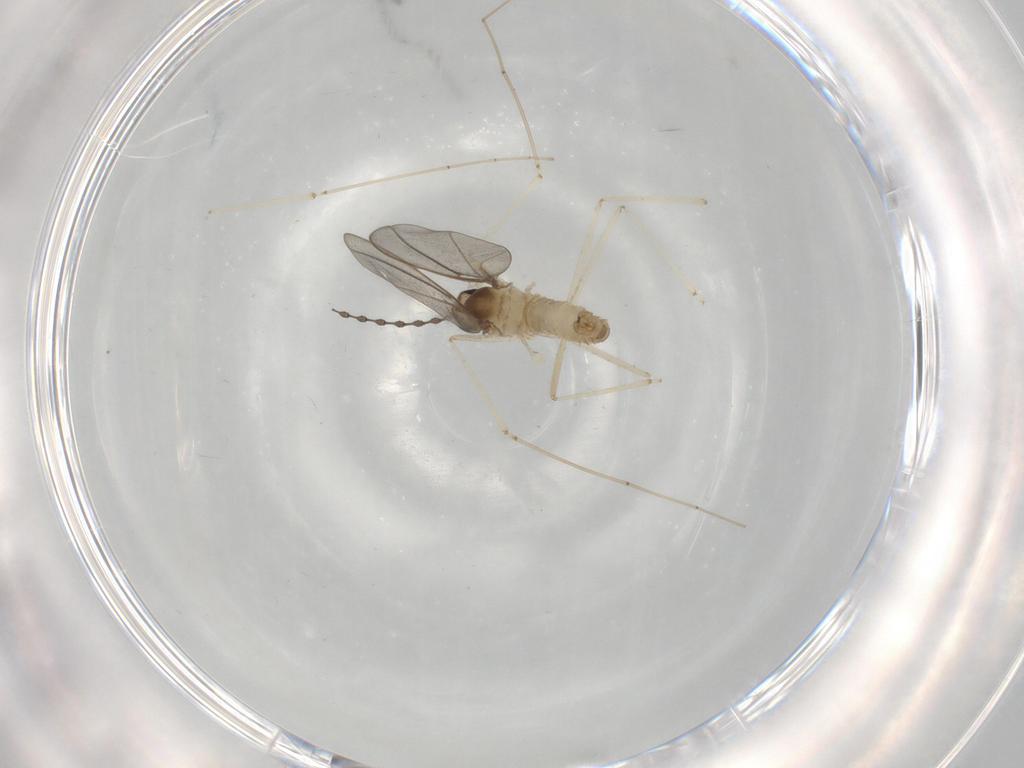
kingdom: Animalia
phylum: Arthropoda
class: Insecta
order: Diptera
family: Cecidomyiidae
